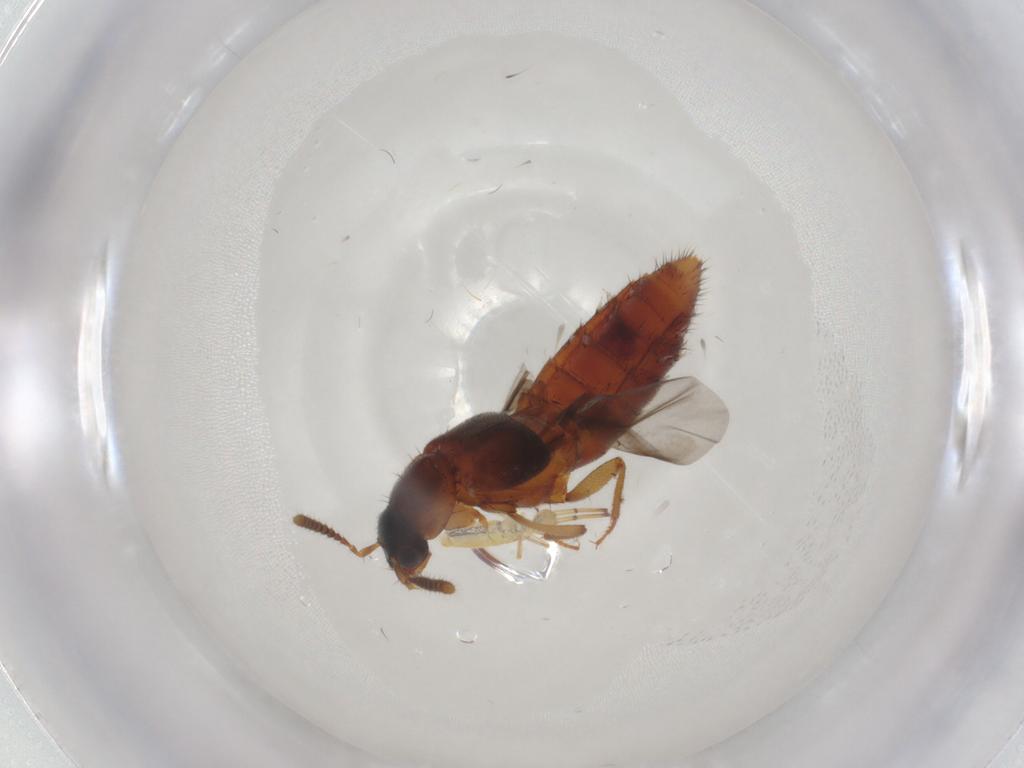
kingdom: Animalia
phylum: Arthropoda
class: Insecta
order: Coleoptera
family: Staphylinidae
